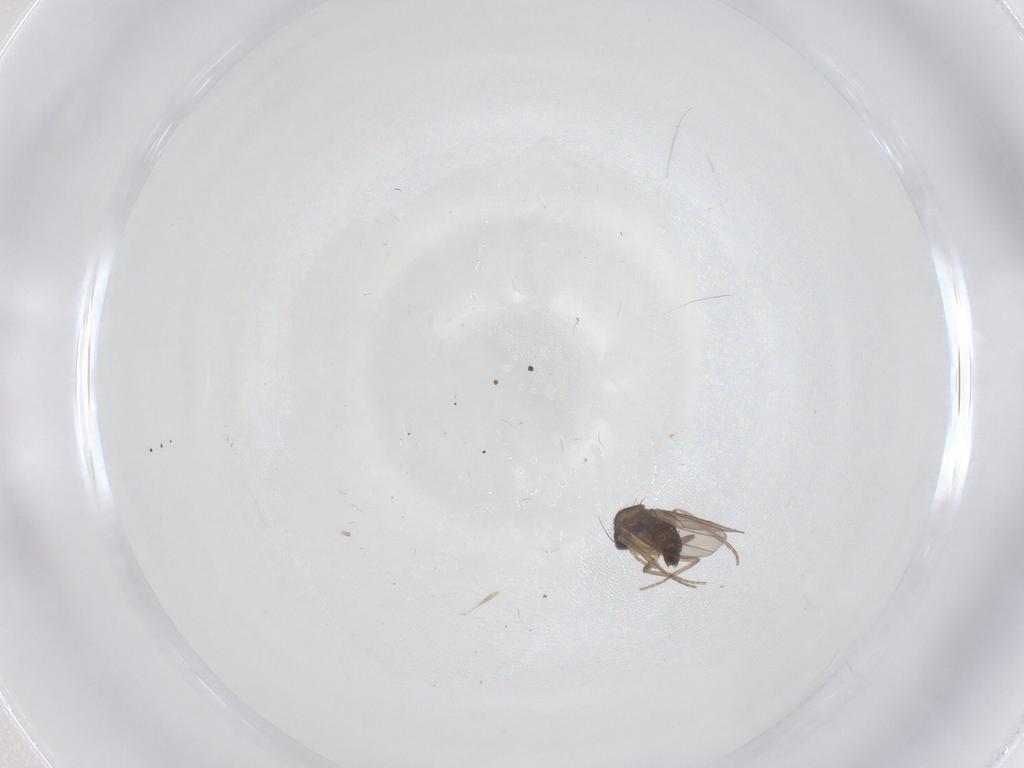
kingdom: Animalia
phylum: Arthropoda
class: Insecta
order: Diptera
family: Phoridae
